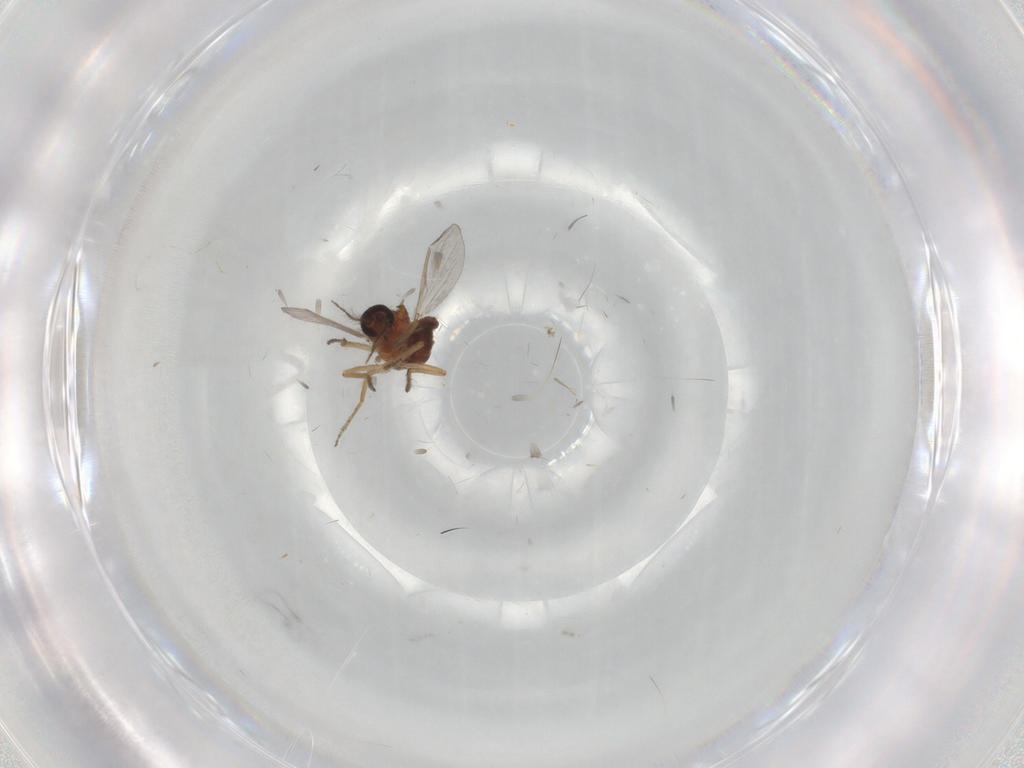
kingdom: Animalia
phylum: Arthropoda
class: Insecta
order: Diptera
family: Ceratopogonidae
